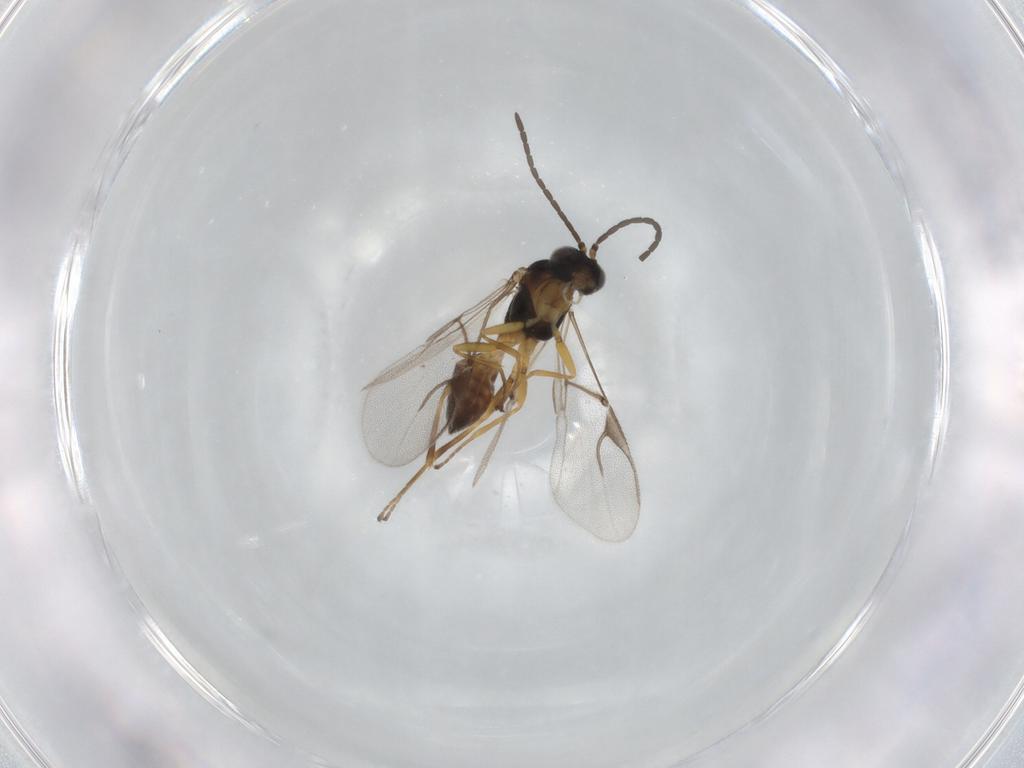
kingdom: Animalia
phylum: Arthropoda
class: Insecta
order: Hymenoptera
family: Braconidae
